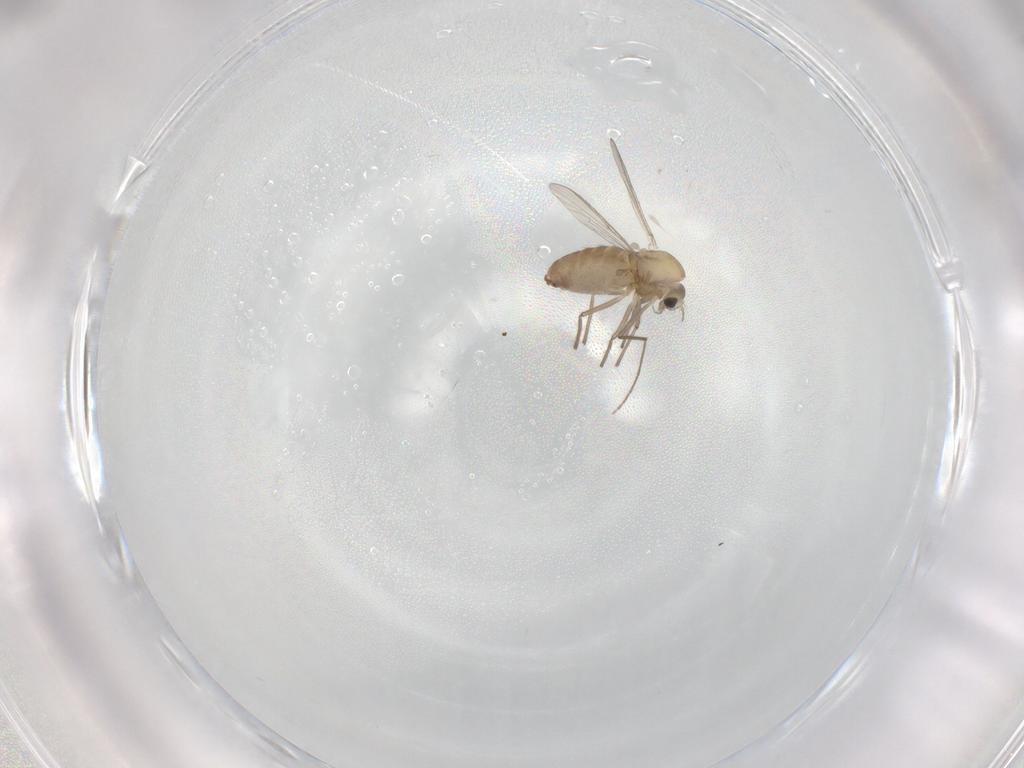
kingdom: Animalia
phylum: Arthropoda
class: Insecta
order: Diptera
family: Chironomidae
